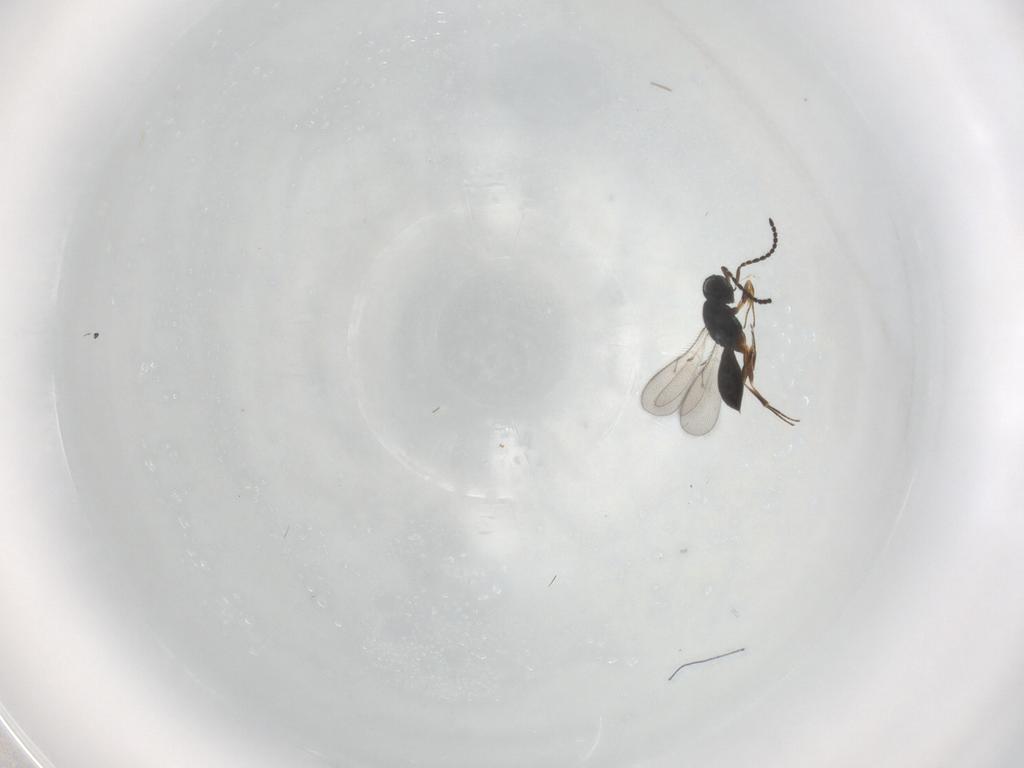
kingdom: Animalia
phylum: Arthropoda
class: Insecta
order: Hymenoptera
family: Scelionidae
